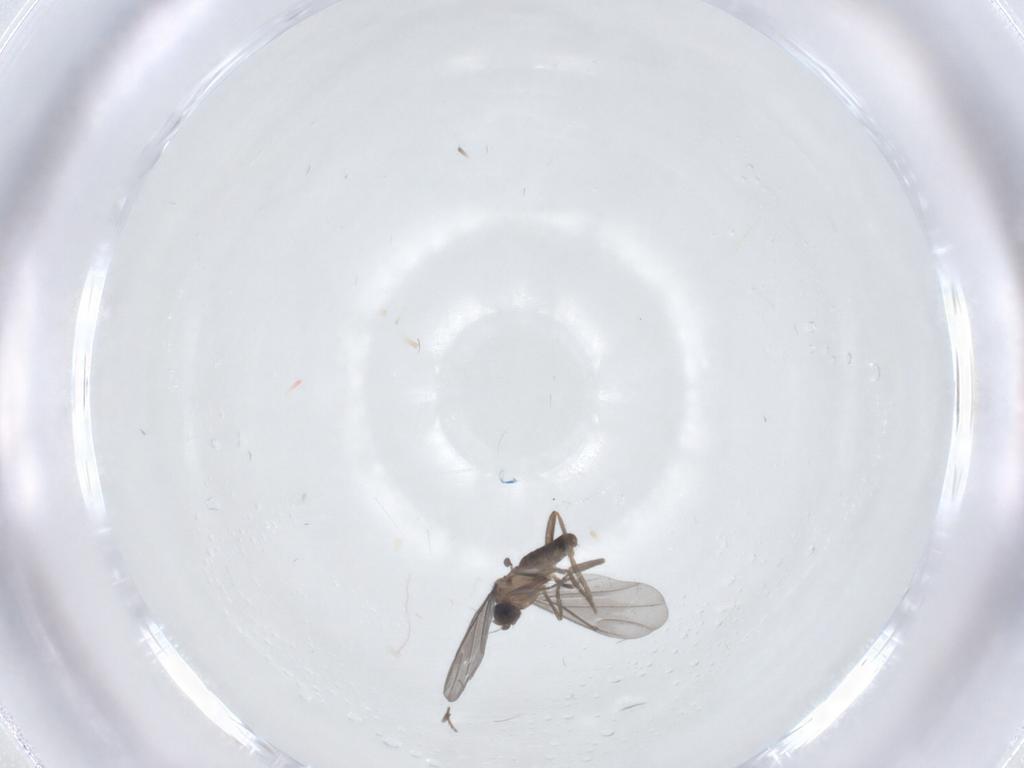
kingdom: Animalia
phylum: Arthropoda
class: Insecta
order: Diptera
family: Phoridae
